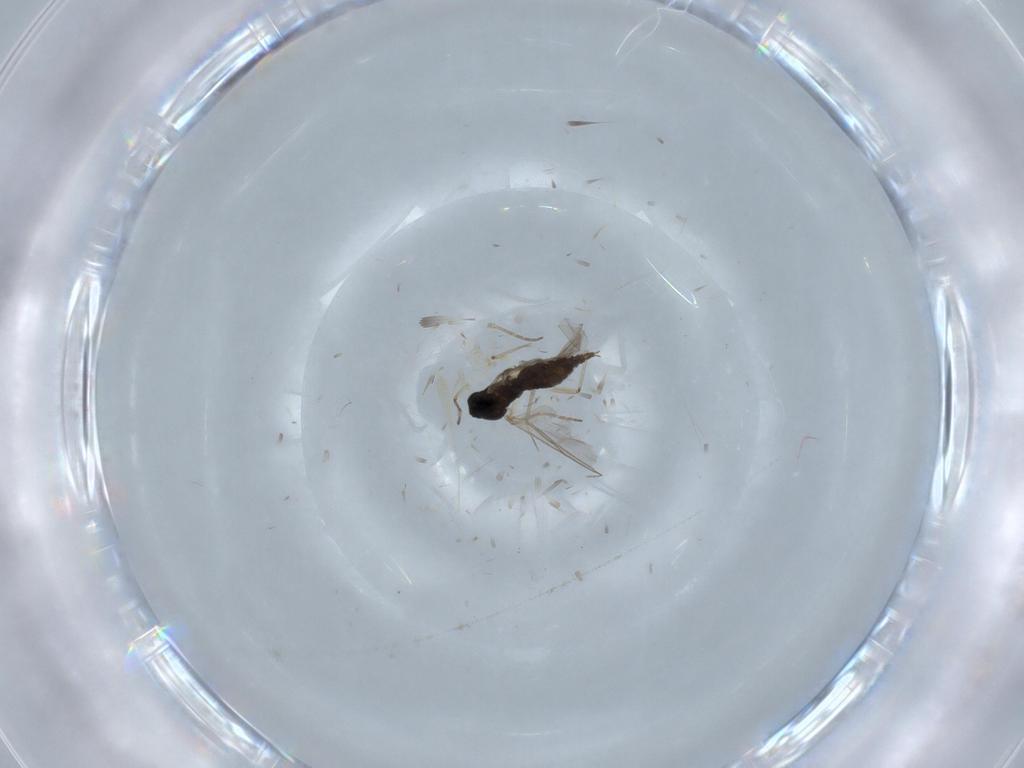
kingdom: Animalia
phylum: Arthropoda
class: Insecta
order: Diptera
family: Sciaridae
